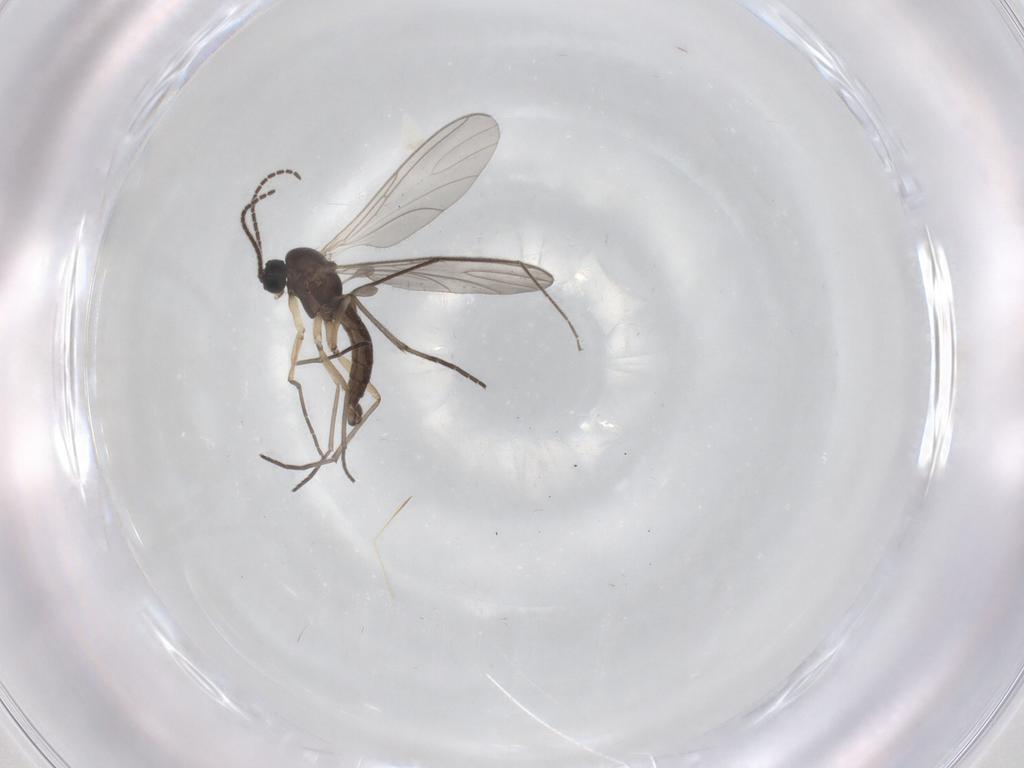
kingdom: Animalia
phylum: Arthropoda
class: Insecta
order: Diptera
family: Sciaridae
